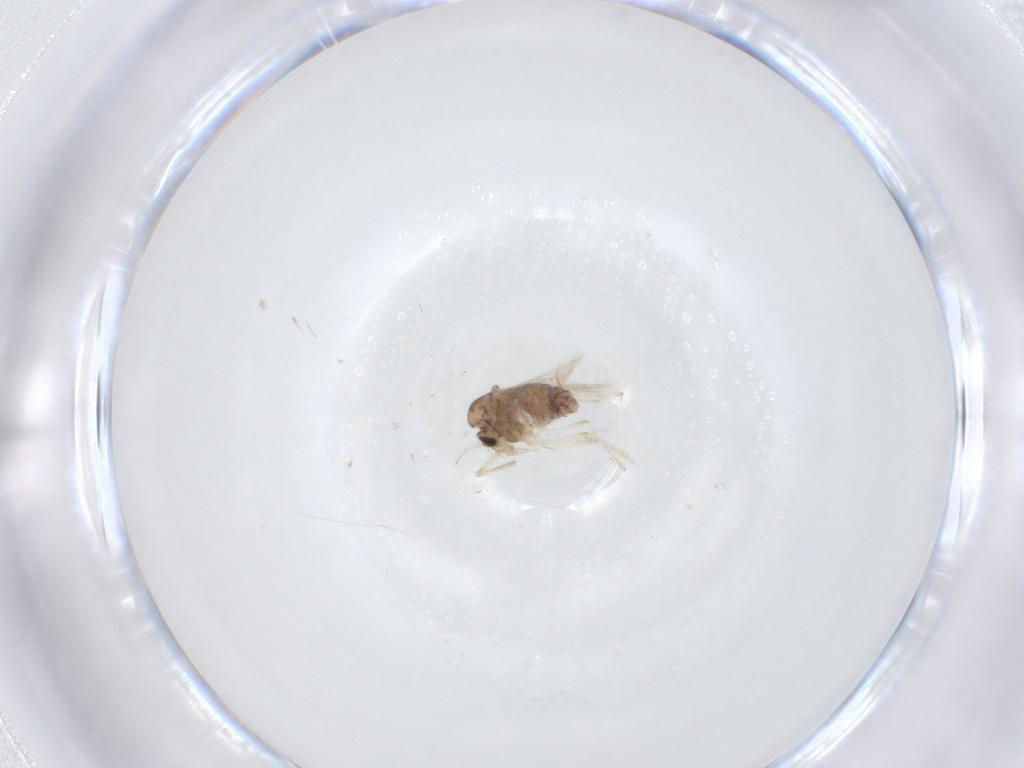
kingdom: Animalia
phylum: Arthropoda
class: Insecta
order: Diptera
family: Chironomidae
